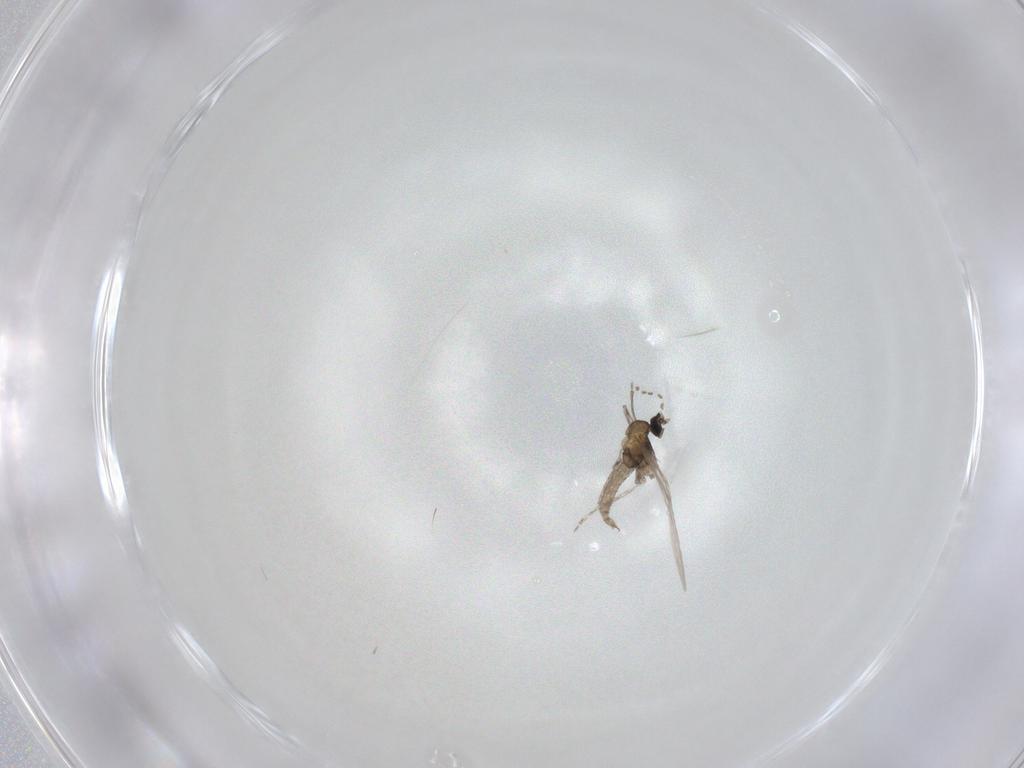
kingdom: Animalia
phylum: Arthropoda
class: Insecta
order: Diptera
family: Cecidomyiidae
